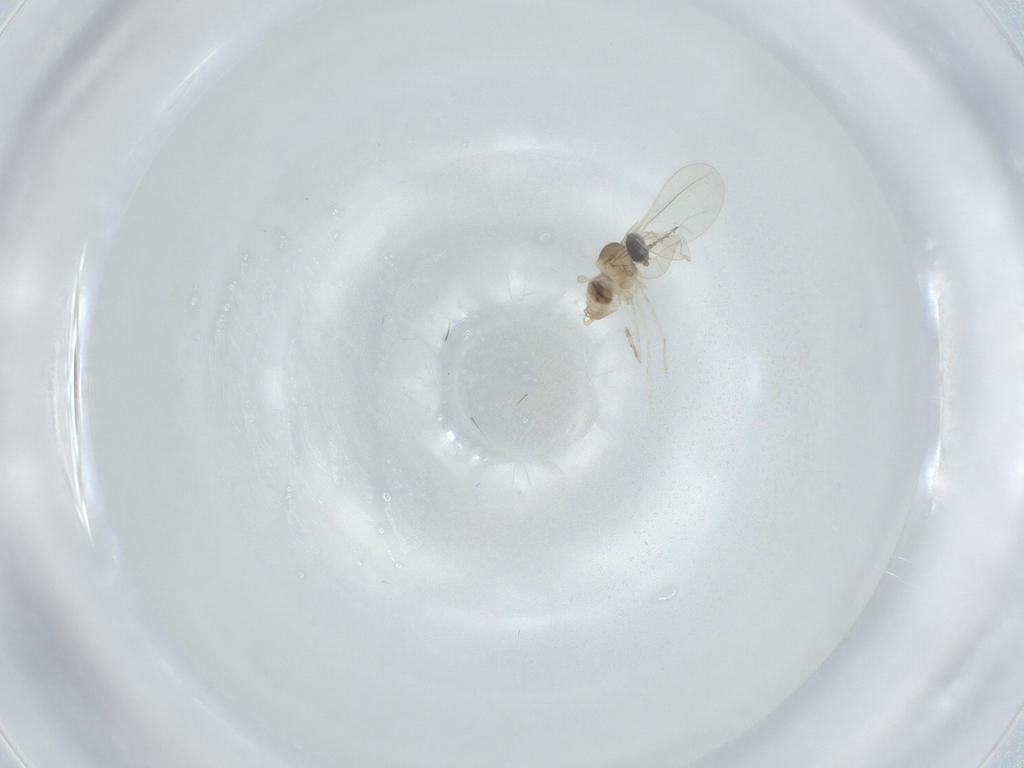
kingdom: Animalia
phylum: Arthropoda
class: Insecta
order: Diptera
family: Cecidomyiidae
